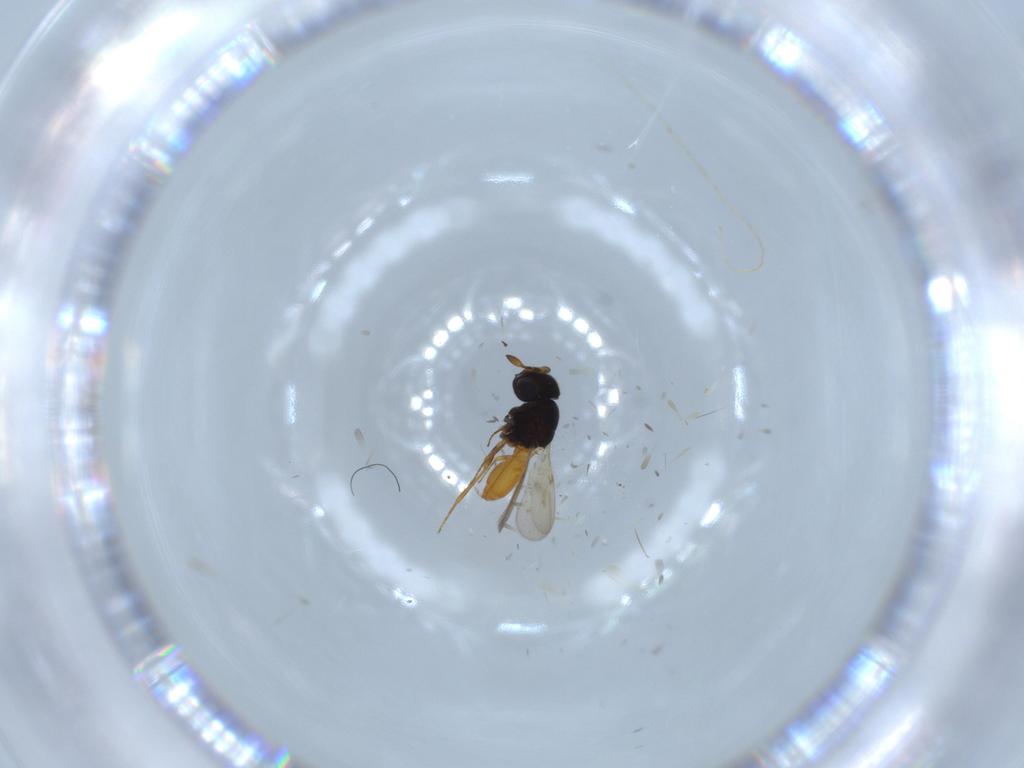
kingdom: Animalia
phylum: Arthropoda
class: Insecta
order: Hymenoptera
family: Scelionidae
